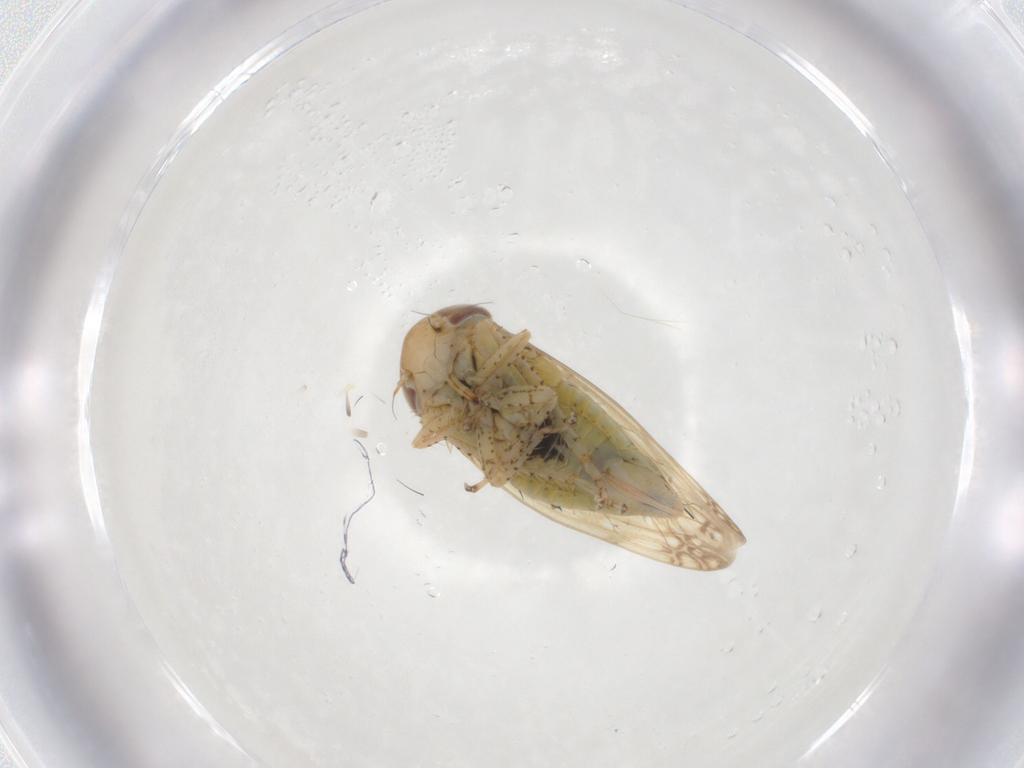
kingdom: Animalia
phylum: Arthropoda
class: Insecta
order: Hemiptera
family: Cicadellidae
